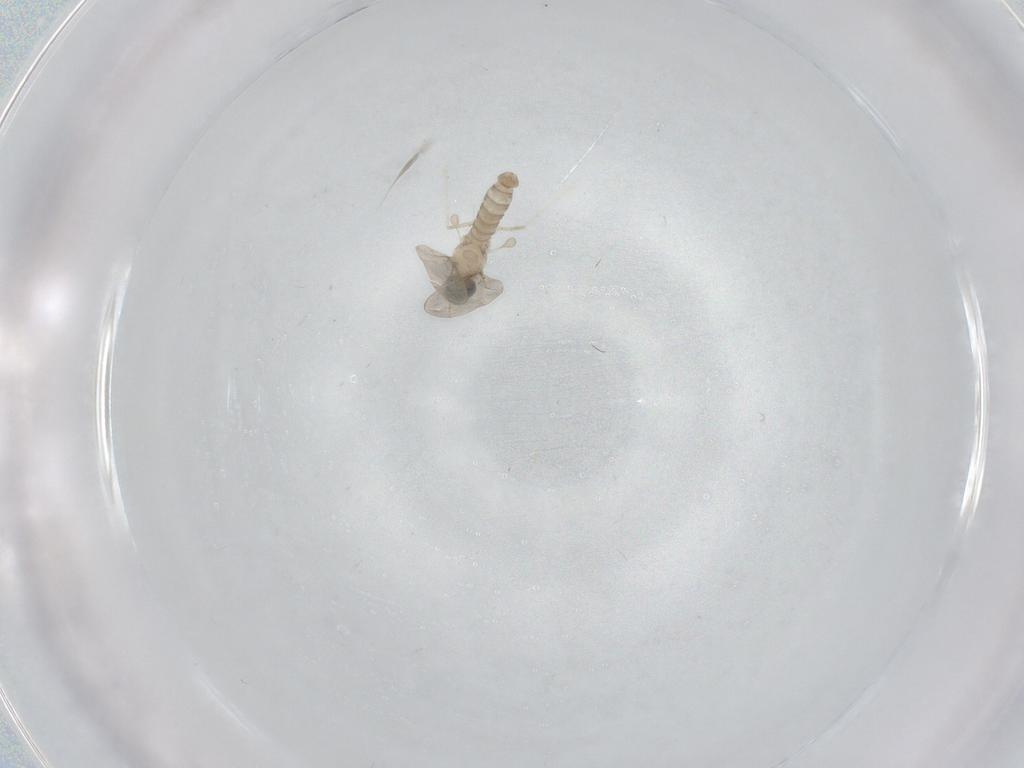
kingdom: Animalia
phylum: Arthropoda
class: Insecta
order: Diptera
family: Cecidomyiidae
